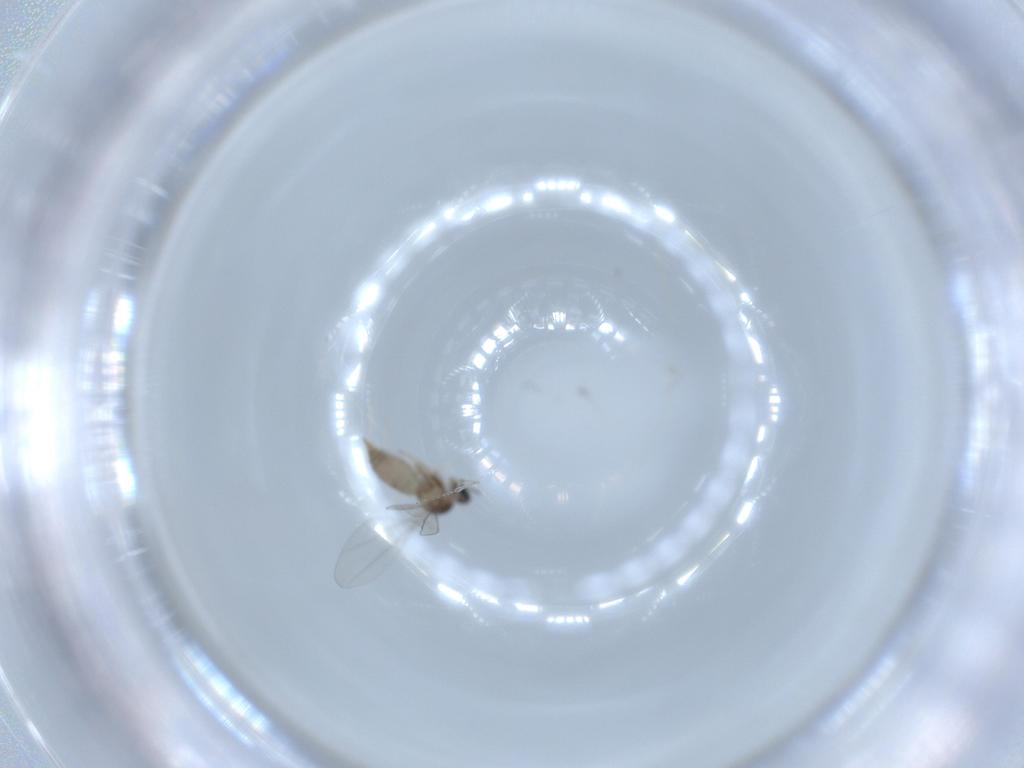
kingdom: Animalia
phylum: Arthropoda
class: Insecta
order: Diptera
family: Cecidomyiidae
